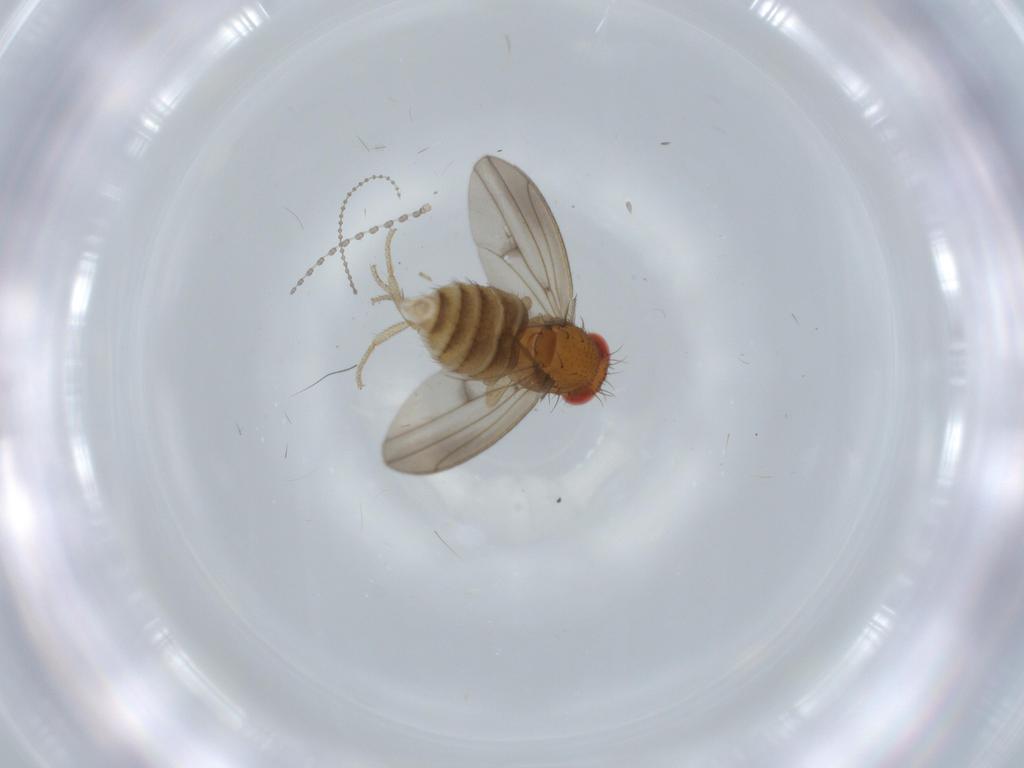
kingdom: Animalia
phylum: Arthropoda
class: Insecta
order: Diptera
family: Drosophilidae
